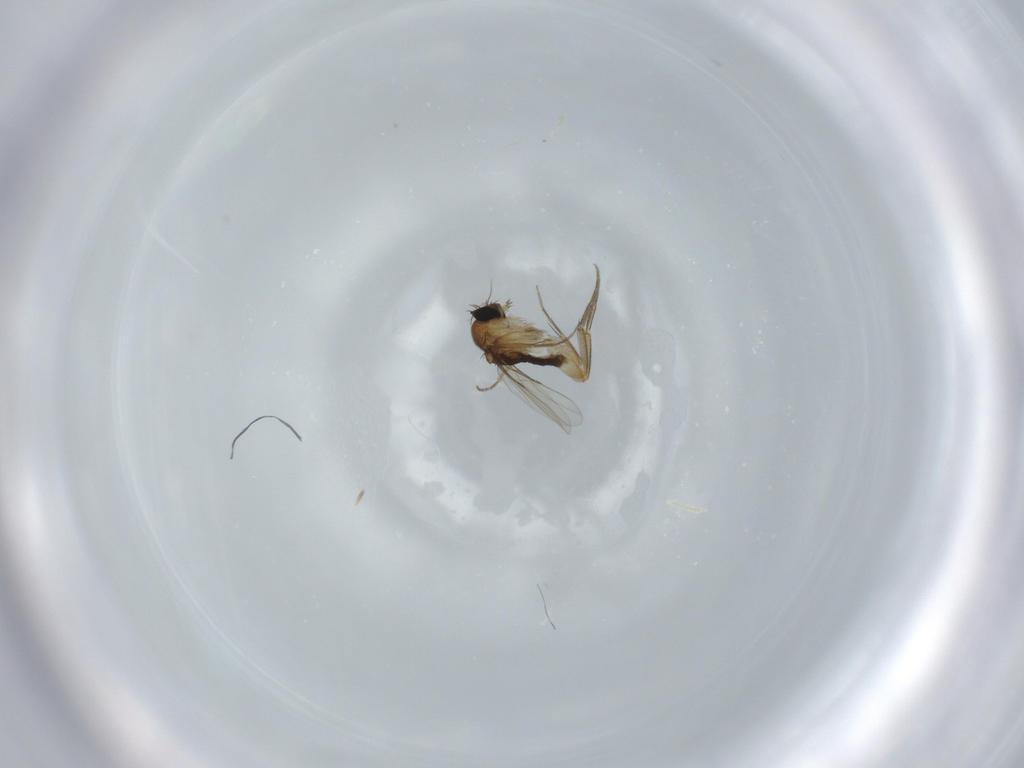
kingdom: Animalia
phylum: Arthropoda
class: Insecta
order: Diptera
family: Phoridae
